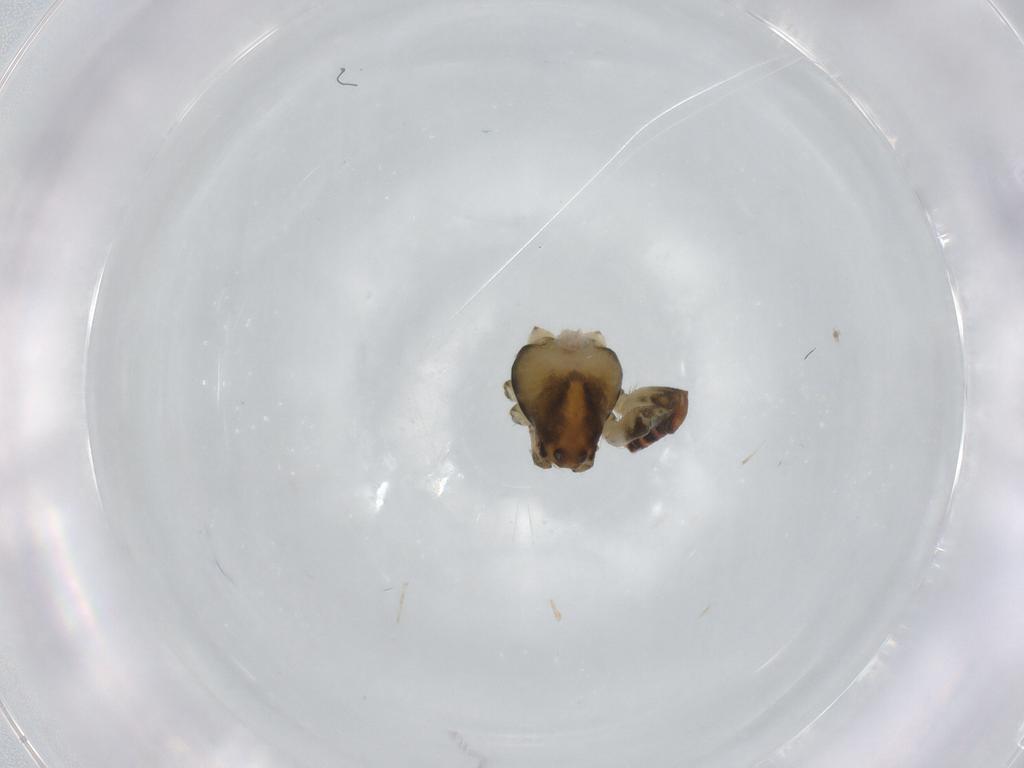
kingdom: Animalia
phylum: Arthropoda
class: Arachnida
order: Araneae
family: Araneidae
